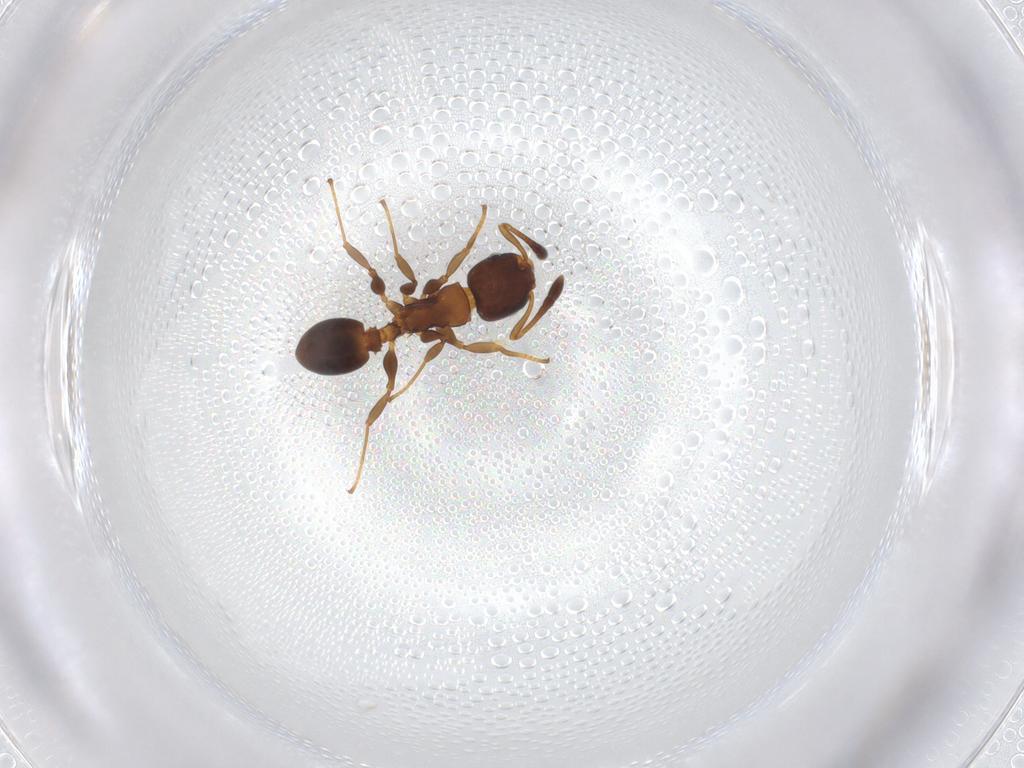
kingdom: Animalia
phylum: Arthropoda
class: Insecta
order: Hymenoptera
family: Formicidae
